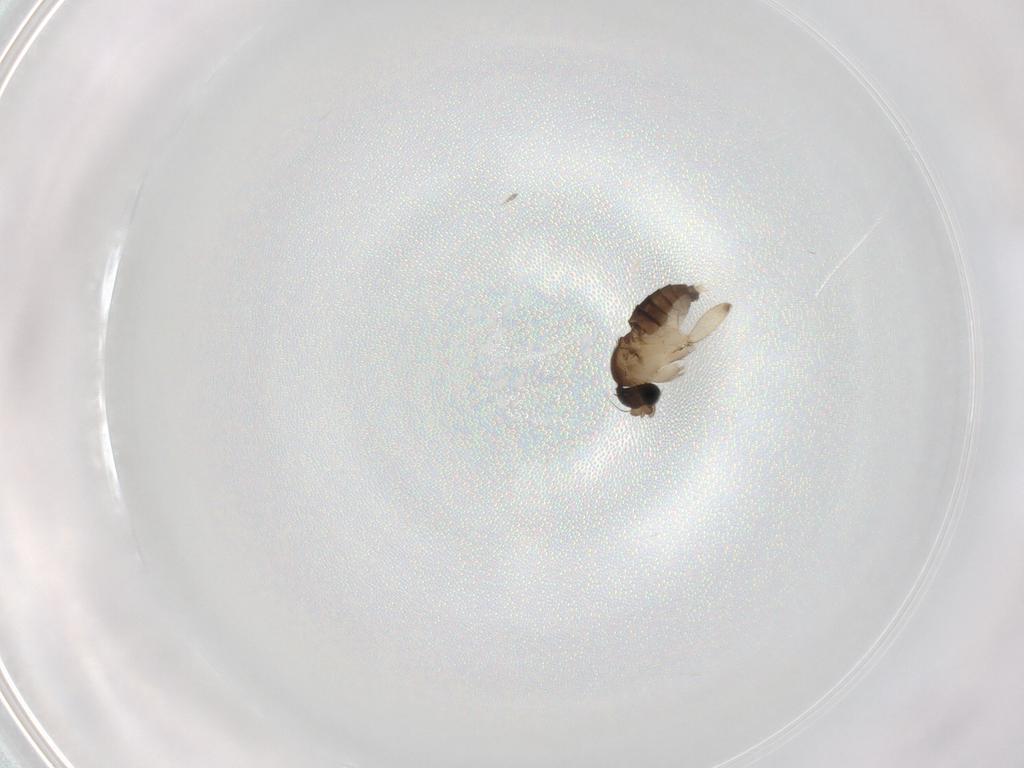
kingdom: Animalia
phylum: Arthropoda
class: Insecta
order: Diptera
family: Phoridae
